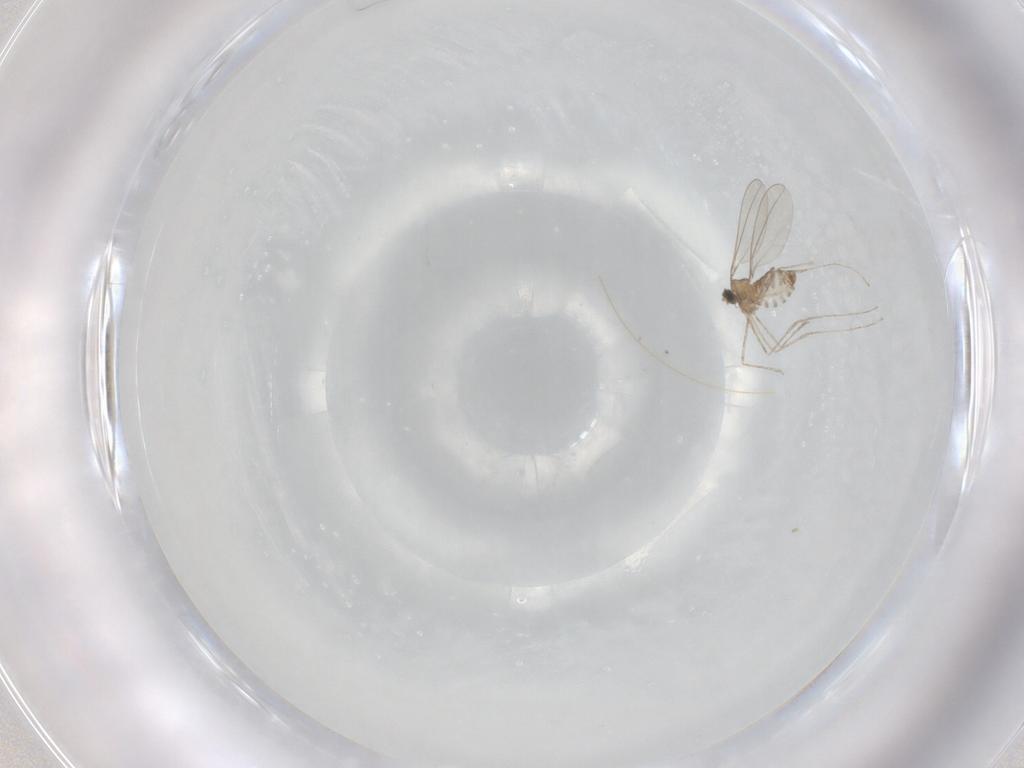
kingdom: Animalia
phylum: Arthropoda
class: Insecta
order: Diptera
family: Cecidomyiidae
